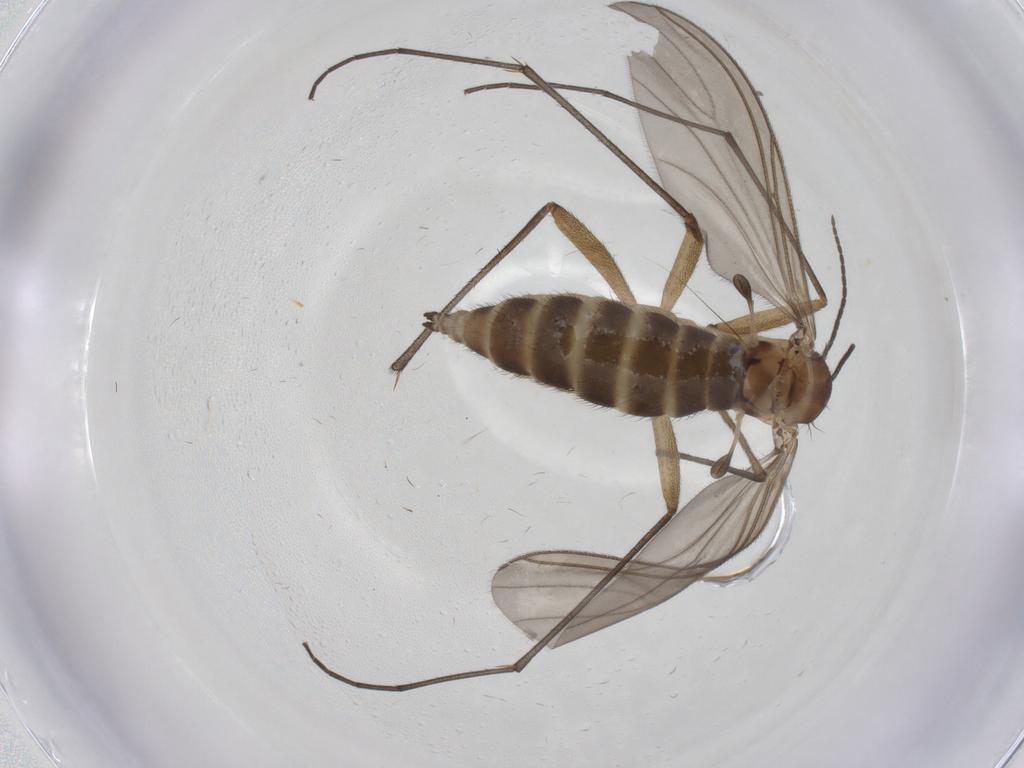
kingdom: Animalia
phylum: Arthropoda
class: Insecta
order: Diptera
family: Sciaridae
